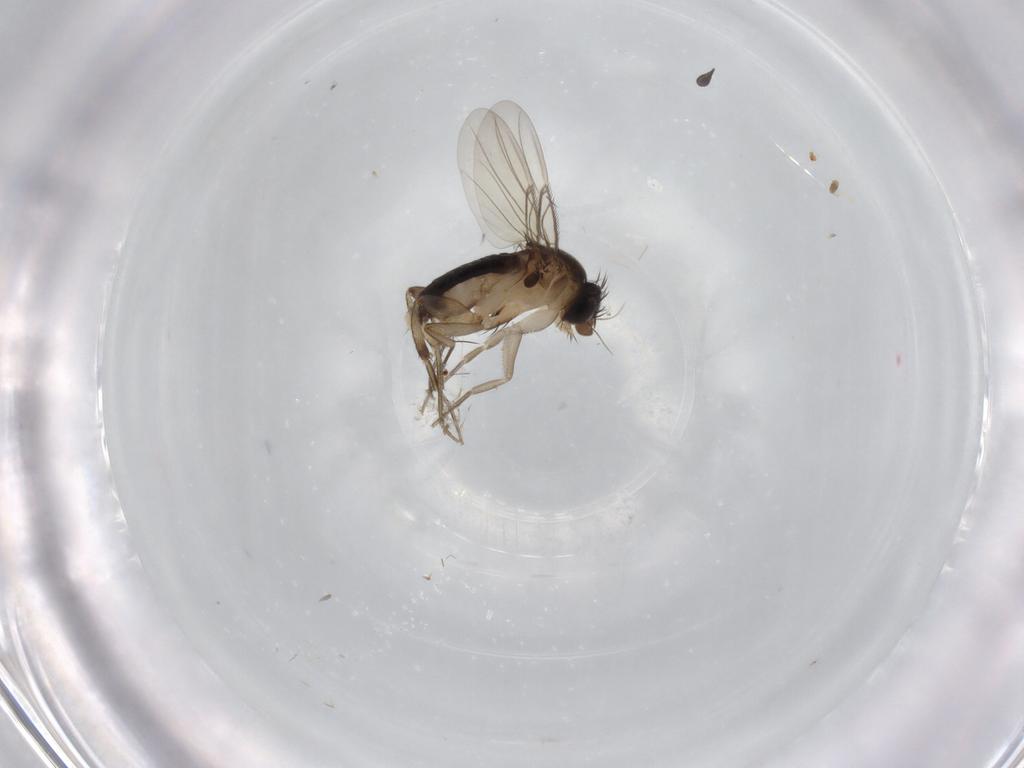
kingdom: Animalia
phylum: Arthropoda
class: Insecta
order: Diptera
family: Phoridae
